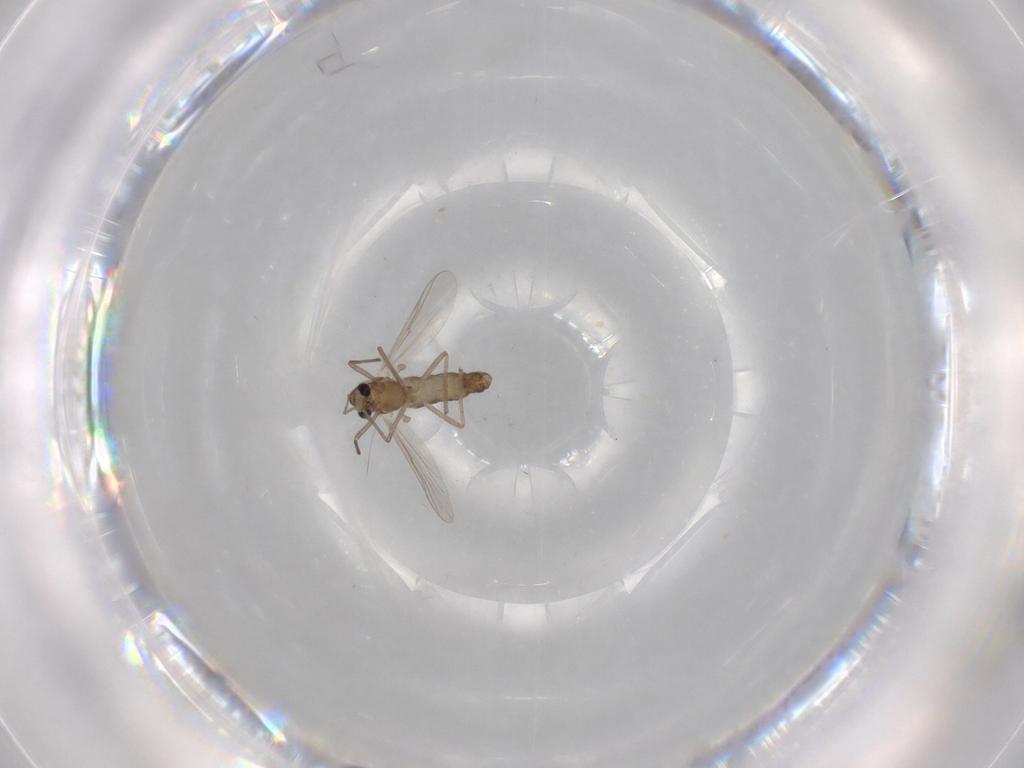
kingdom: Animalia
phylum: Arthropoda
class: Insecta
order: Diptera
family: Chironomidae
